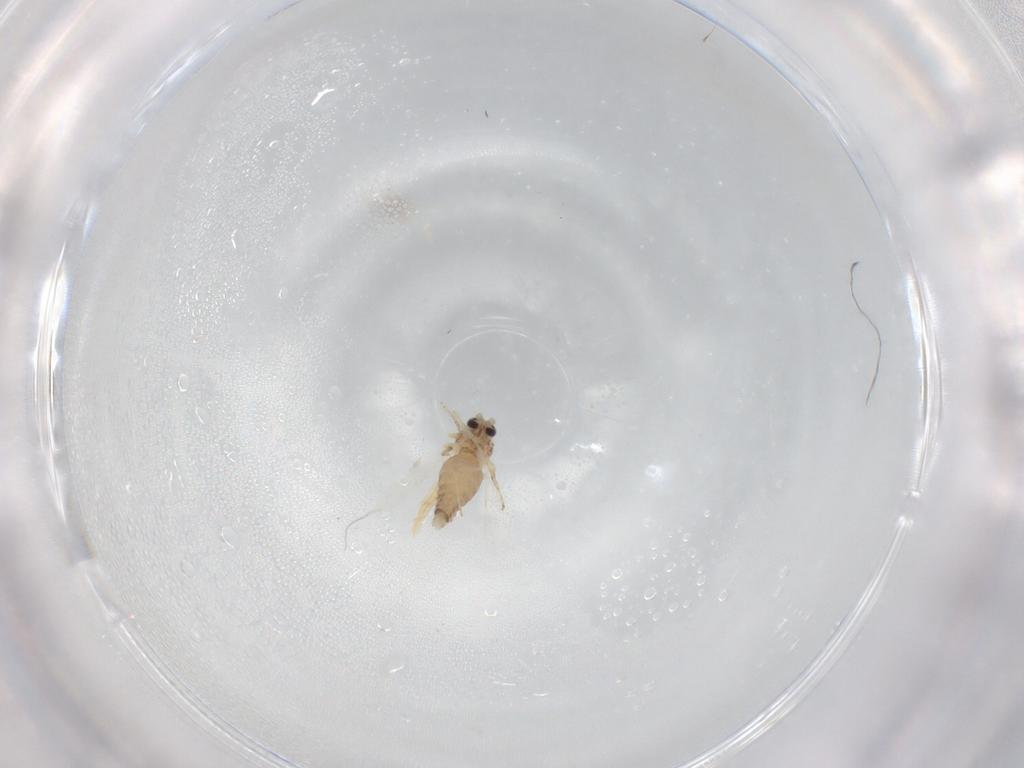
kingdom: Animalia
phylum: Arthropoda
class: Insecta
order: Diptera
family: Ceratopogonidae
